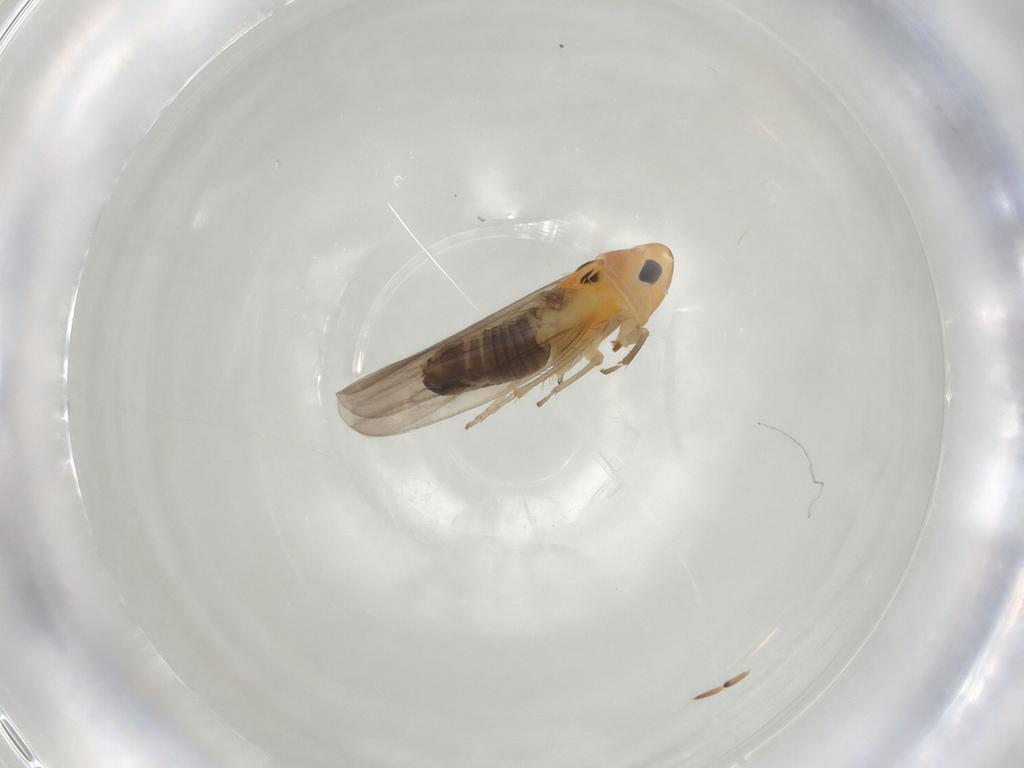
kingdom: Animalia
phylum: Arthropoda
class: Insecta
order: Hemiptera
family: Cicadellidae
